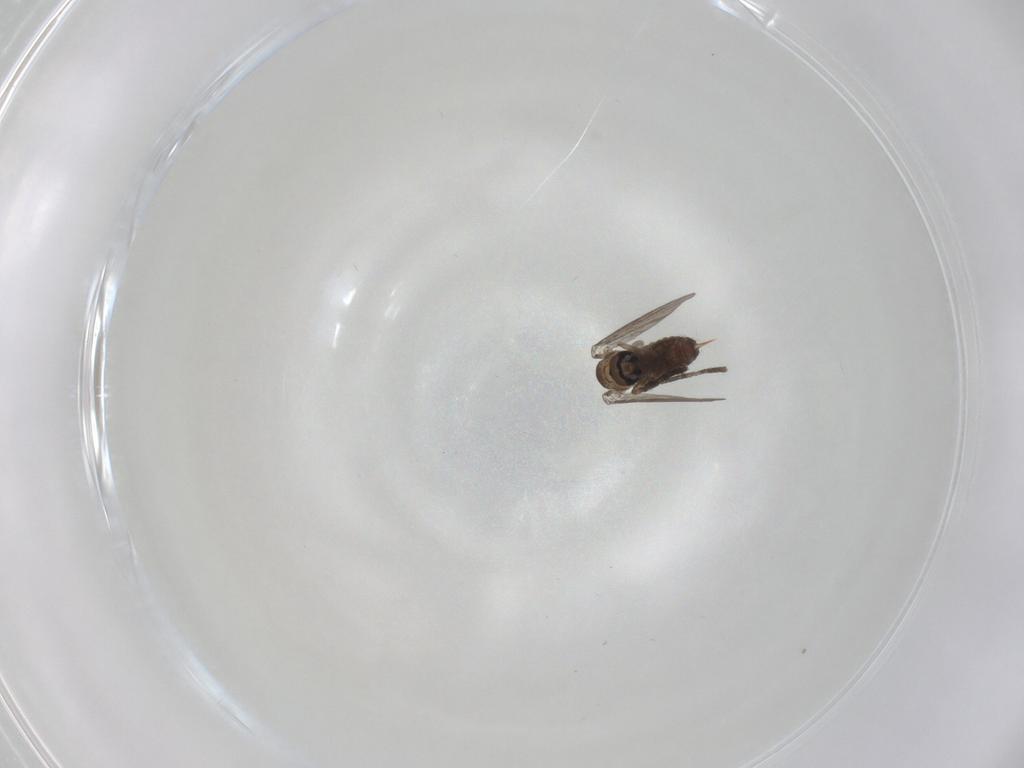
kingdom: Animalia
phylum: Arthropoda
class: Insecta
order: Diptera
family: Psychodidae
